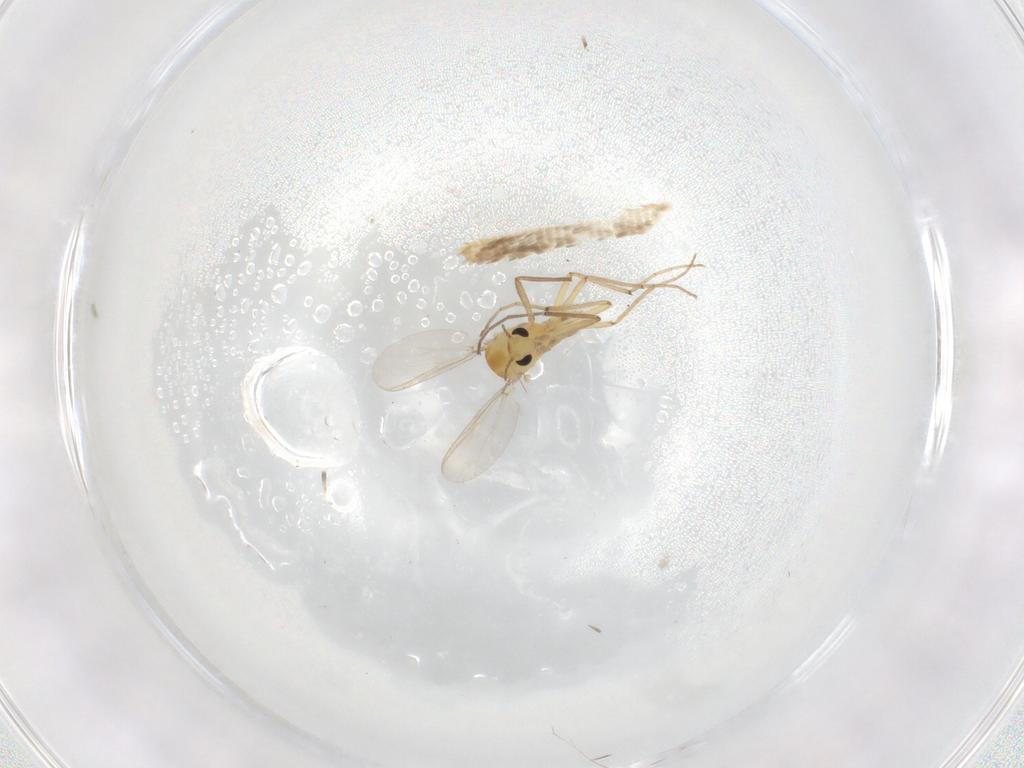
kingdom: Animalia
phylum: Arthropoda
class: Insecta
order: Diptera
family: Chironomidae
